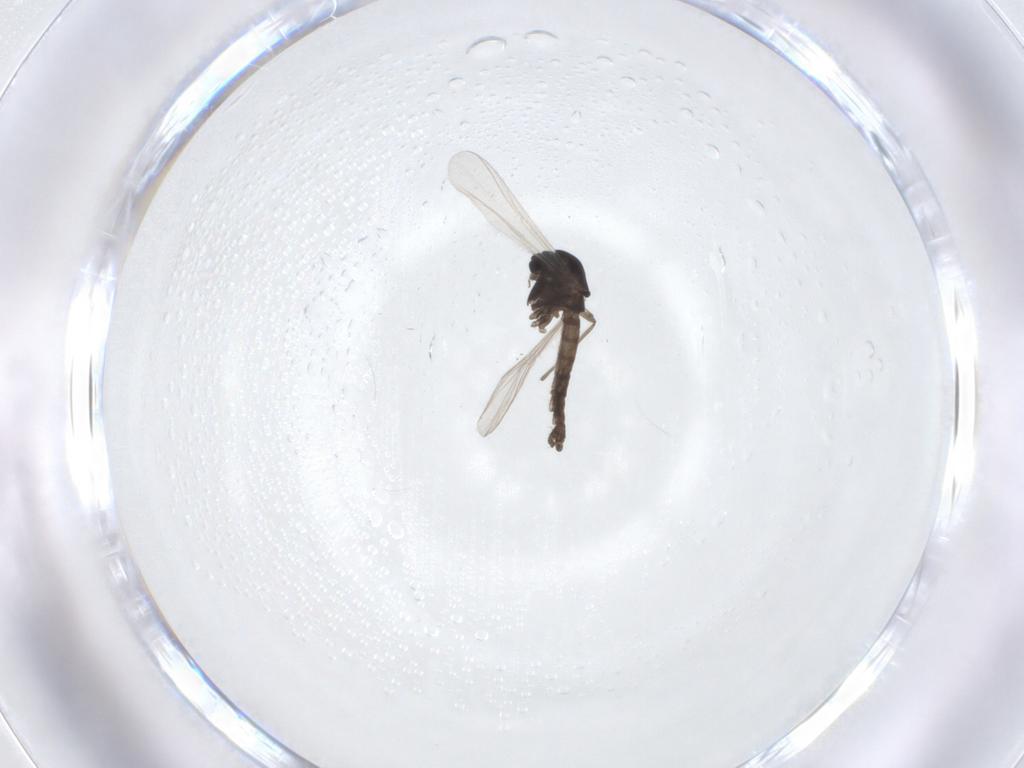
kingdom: Animalia
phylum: Arthropoda
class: Insecta
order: Diptera
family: Chironomidae
